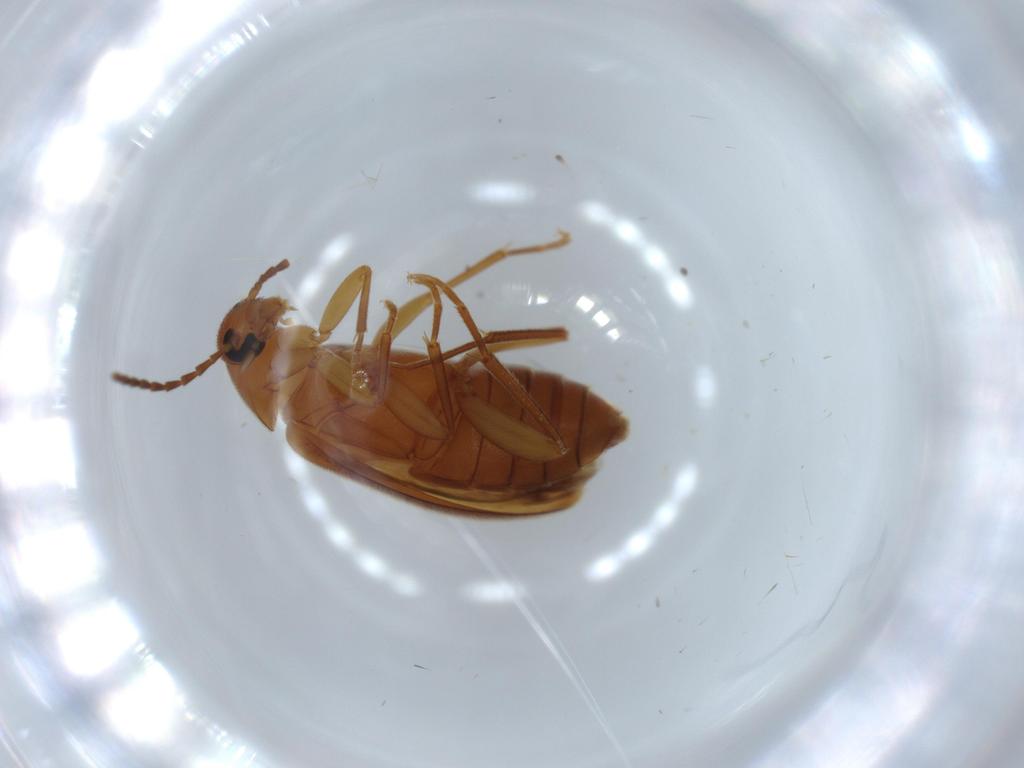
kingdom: Animalia
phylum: Arthropoda
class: Insecta
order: Coleoptera
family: Scraptiidae
